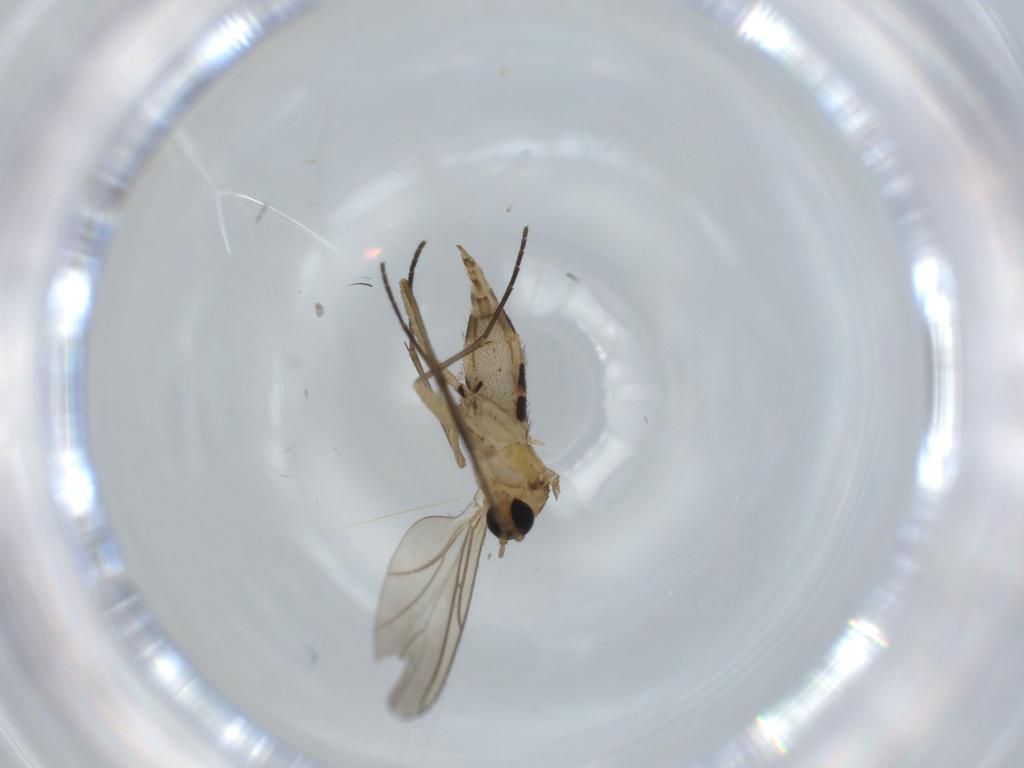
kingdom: Animalia
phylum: Arthropoda
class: Insecta
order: Diptera
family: Sciaridae
